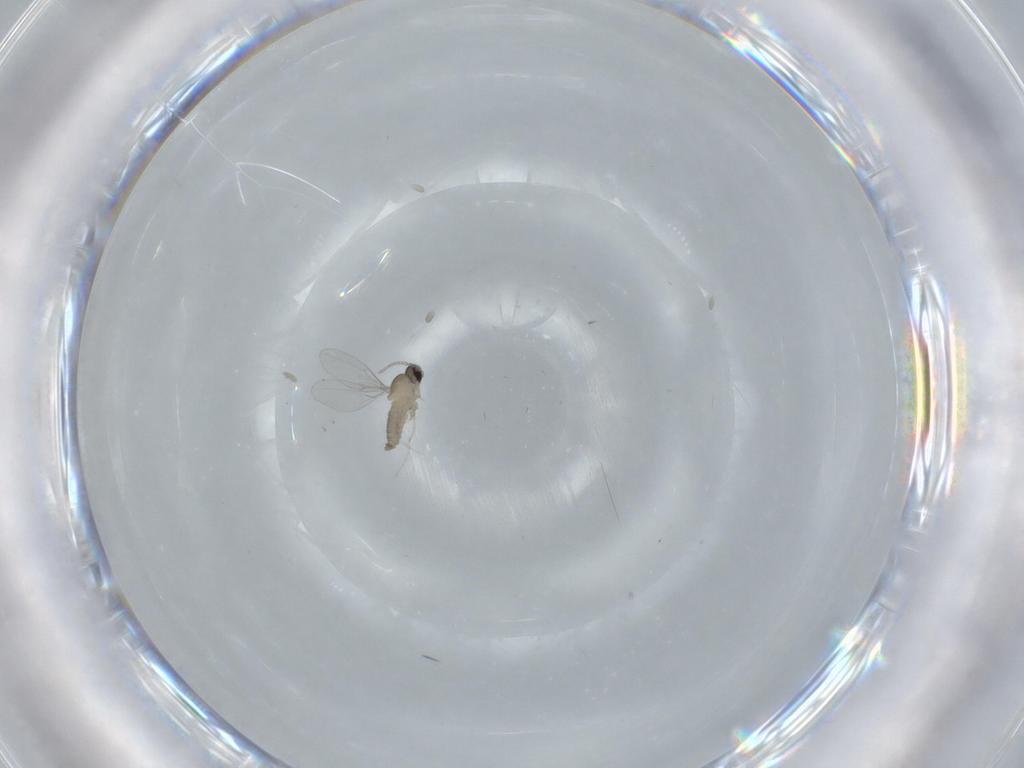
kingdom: Animalia
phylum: Arthropoda
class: Insecta
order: Diptera
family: Cecidomyiidae
